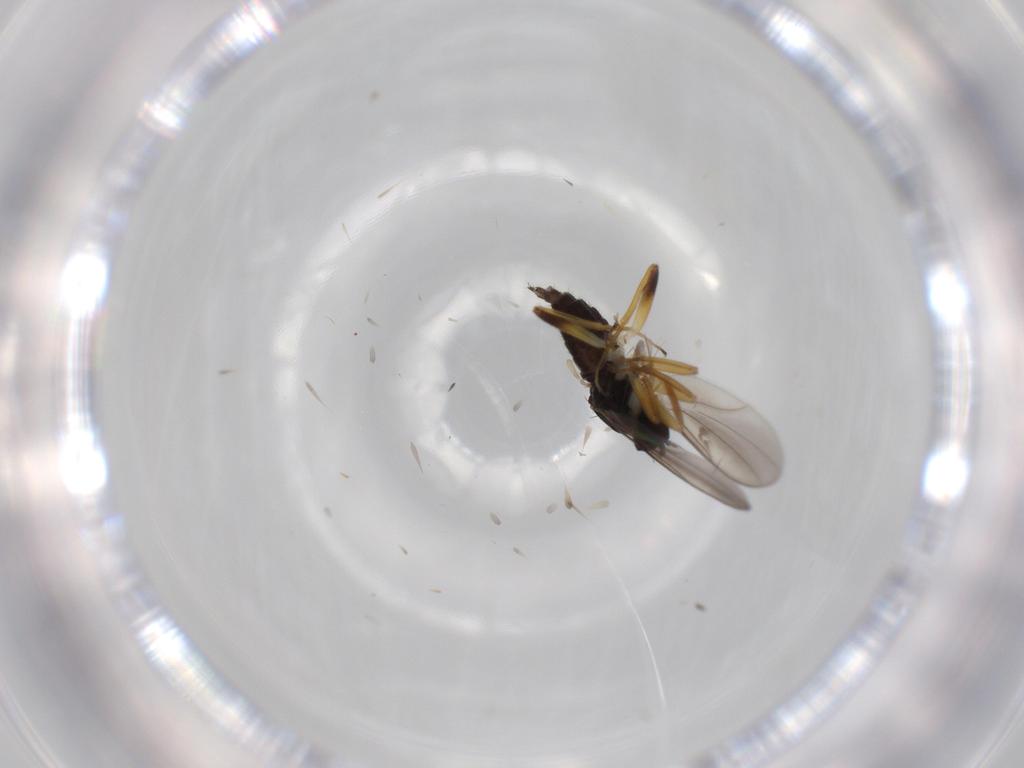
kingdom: Animalia
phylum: Arthropoda
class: Insecta
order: Diptera
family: Hybotidae
